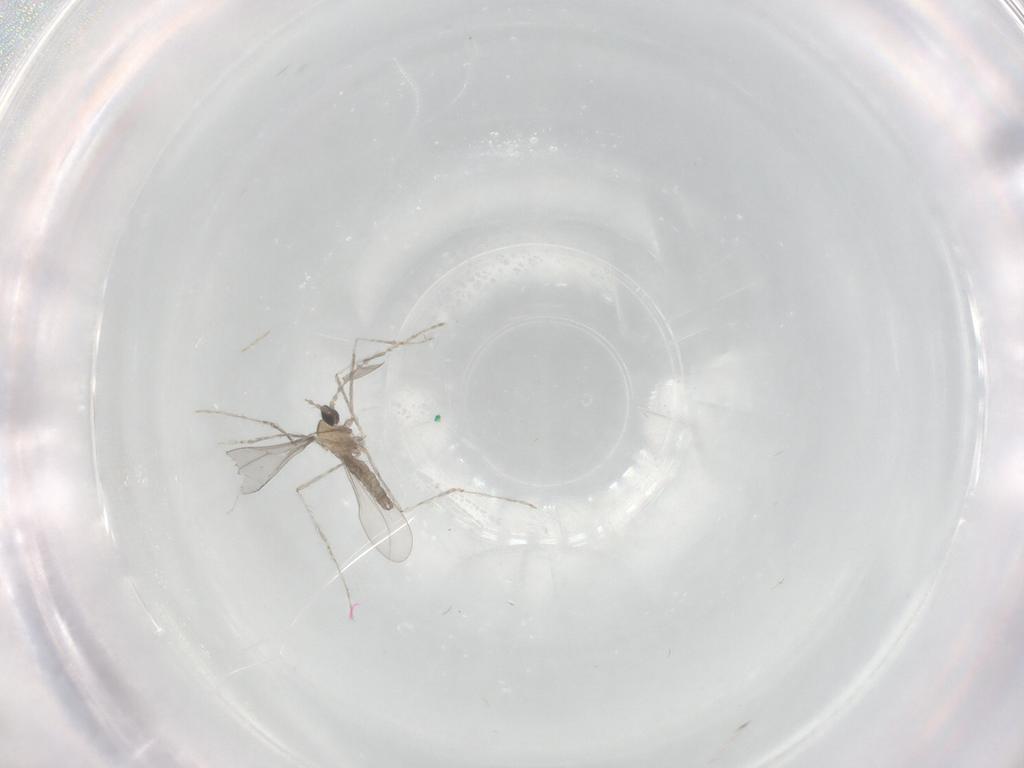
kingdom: Animalia
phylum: Arthropoda
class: Insecta
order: Diptera
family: Cecidomyiidae
